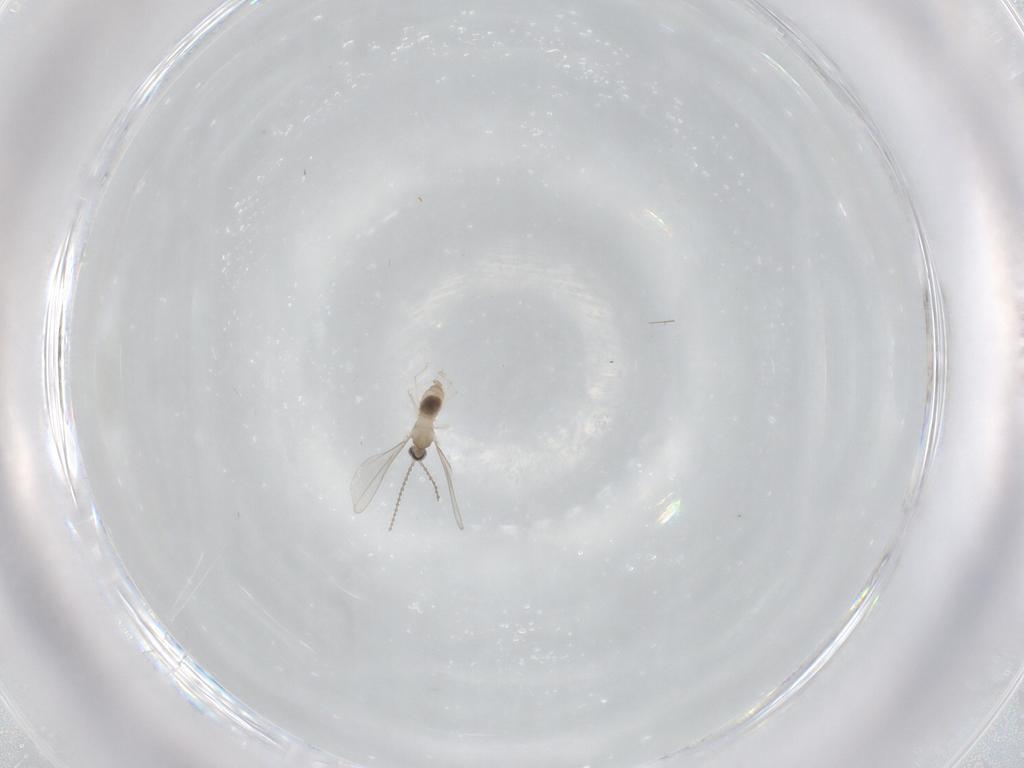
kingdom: Animalia
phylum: Arthropoda
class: Insecta
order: Diptera
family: Cecidomyiidae
